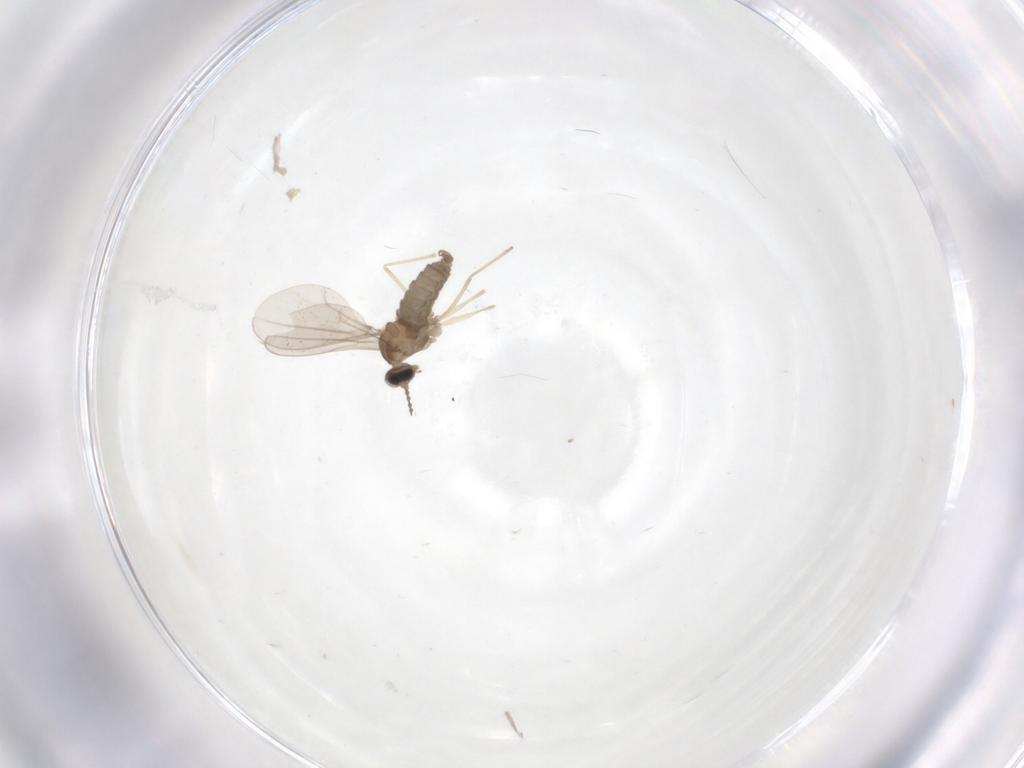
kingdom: Animalia
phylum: Arthropoda
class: Insecta
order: Diptera
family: Cecidomyiidae
